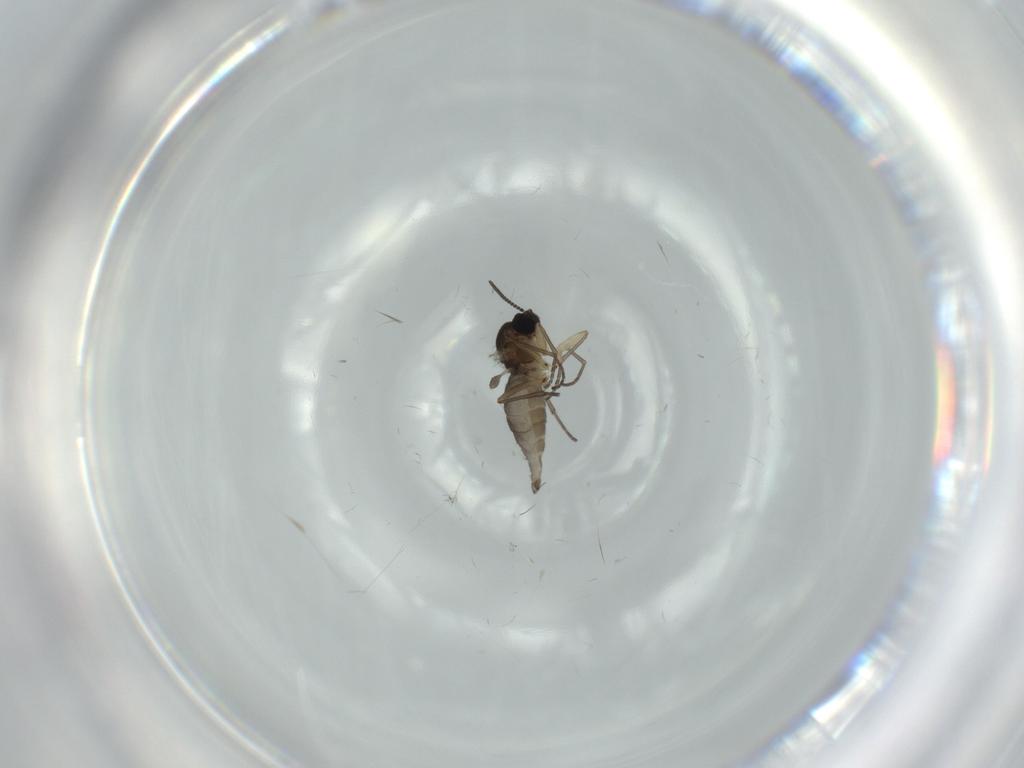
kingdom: Animalia
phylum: Arthropoda
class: Insecta
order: Diptera
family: Sciaridae
